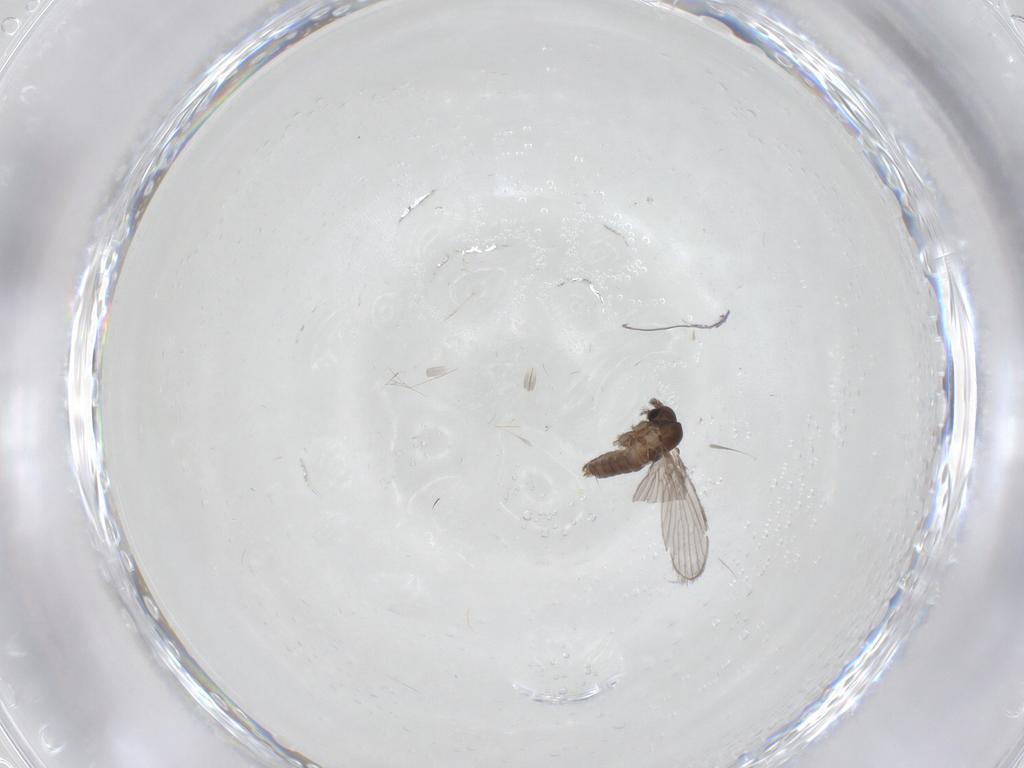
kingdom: Animalia
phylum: Arthropoda
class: Insecta
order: Diptera
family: Cecidomyiidae
